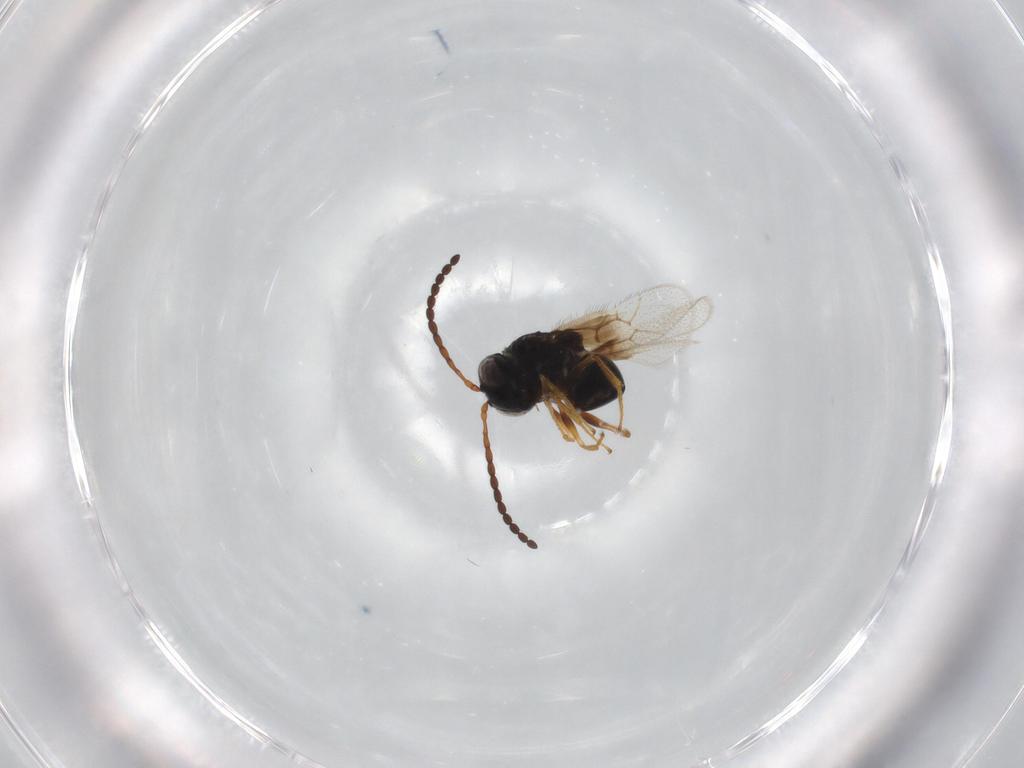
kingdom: Animalia
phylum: Arthropoda
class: Insecta
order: Hymenoptera
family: Figitidae
